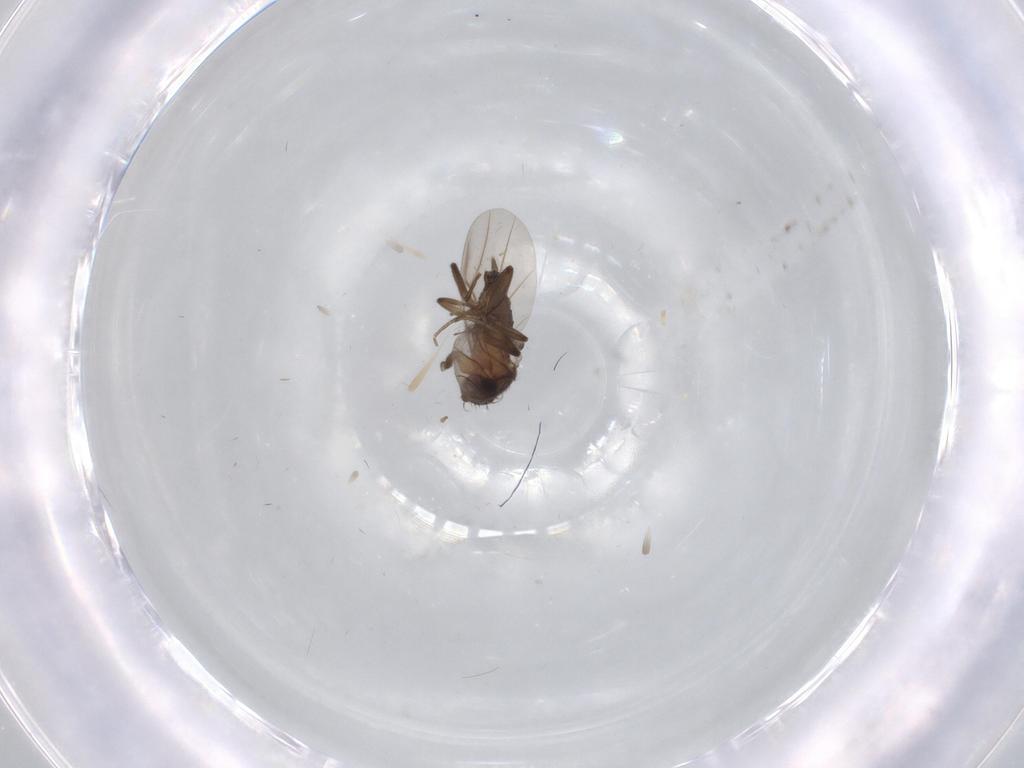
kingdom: Animalia
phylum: Arthropoda
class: Insecta
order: Diptera
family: Phoridae
